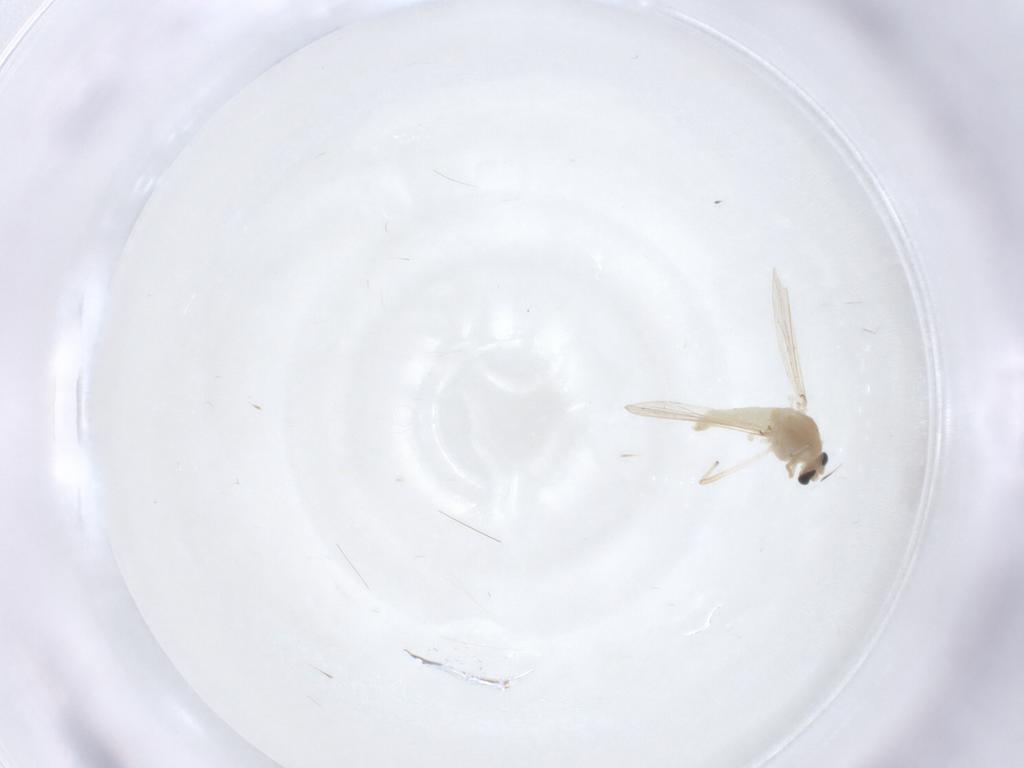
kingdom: Animalia
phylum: Arthropoda
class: Insecta
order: Diptera
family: Chironomidae
